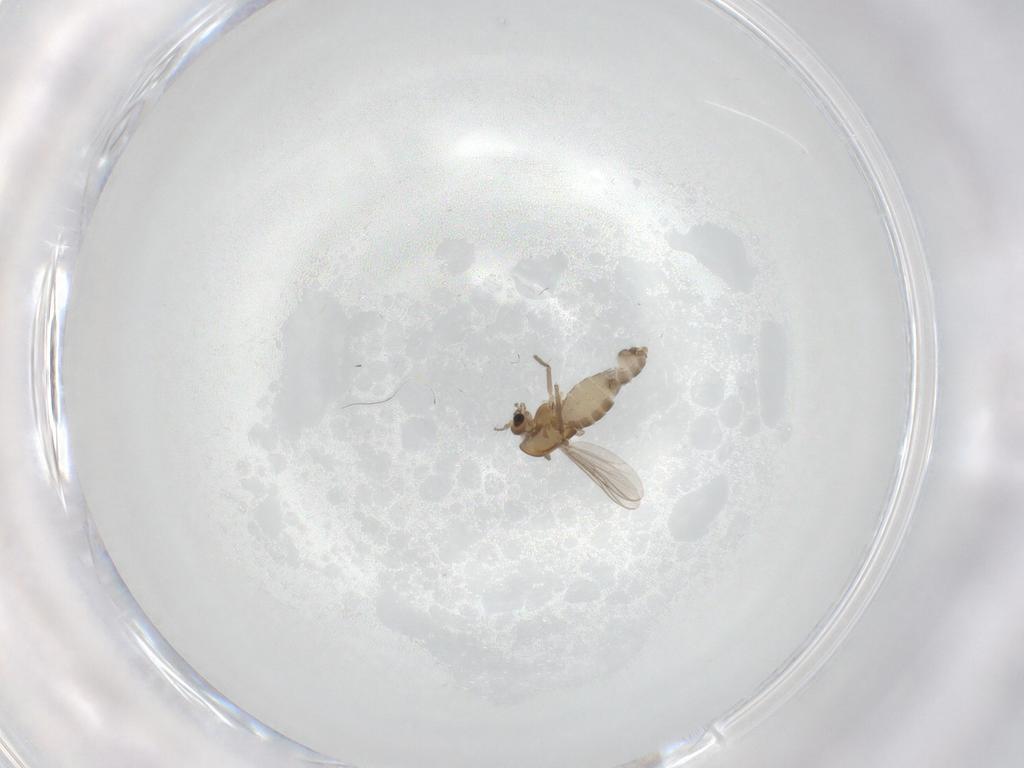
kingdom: Animalia
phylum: Arthropoda
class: Insecta
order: Diptera
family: Chironomidae
